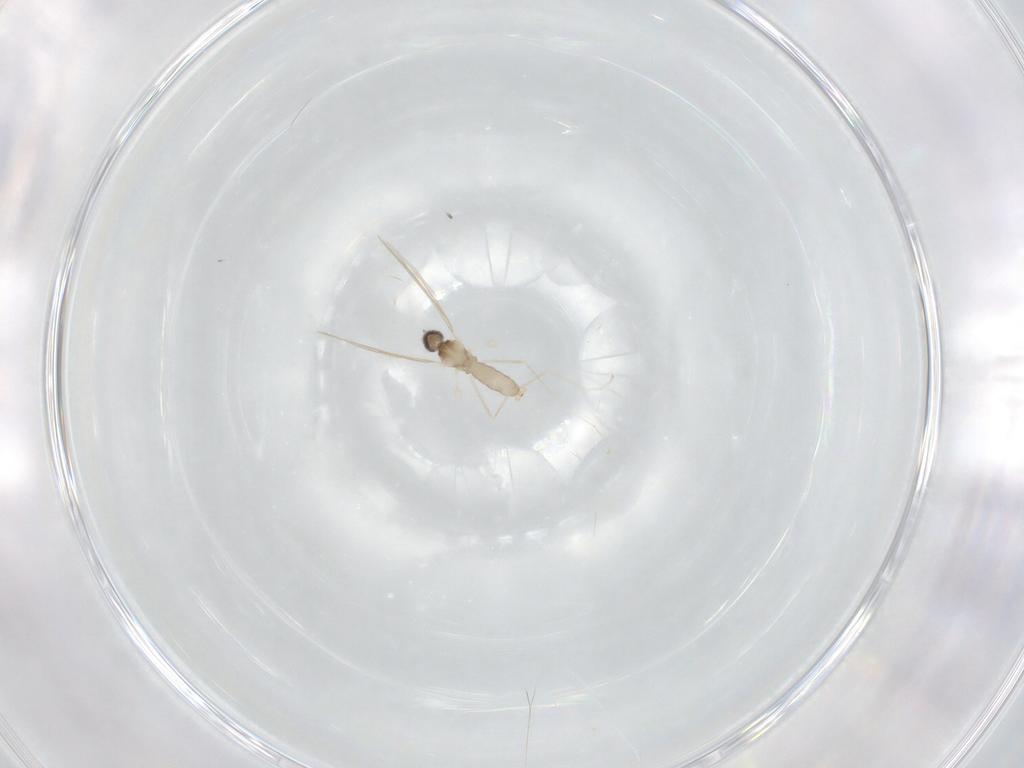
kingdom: Animalia
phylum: Arthropoda
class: Insecta
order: Diptera
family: Cecidomyiidae
